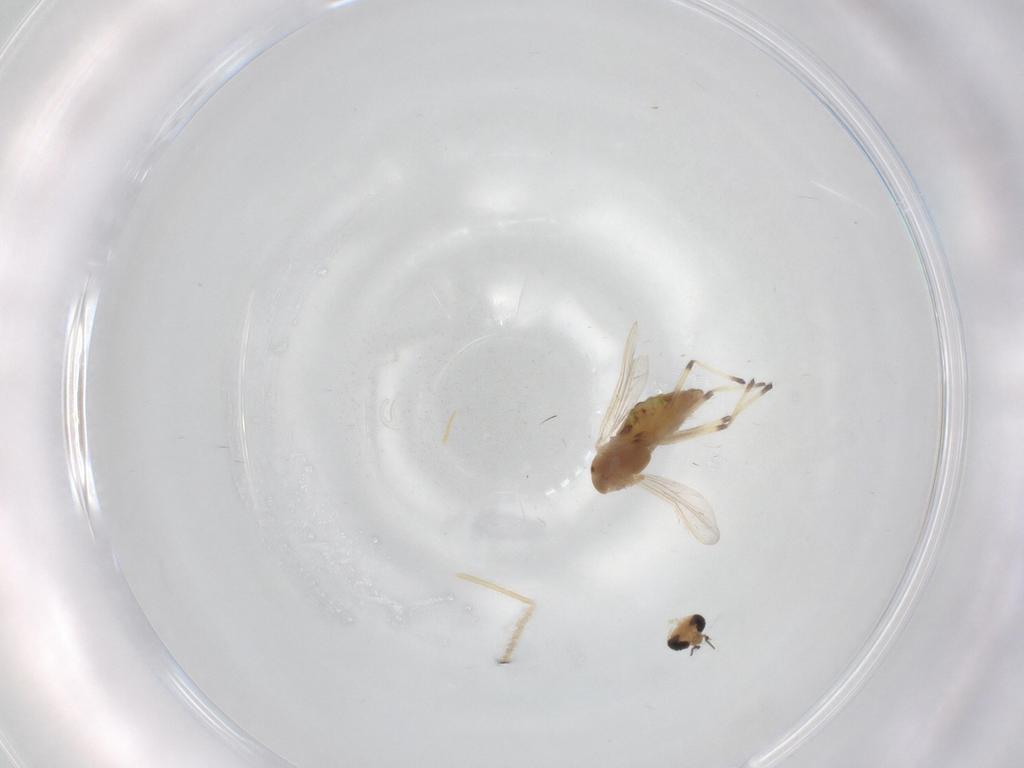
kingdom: Animalia
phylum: Arthropoda
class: Insecta
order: Diptera
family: Chironomidae
